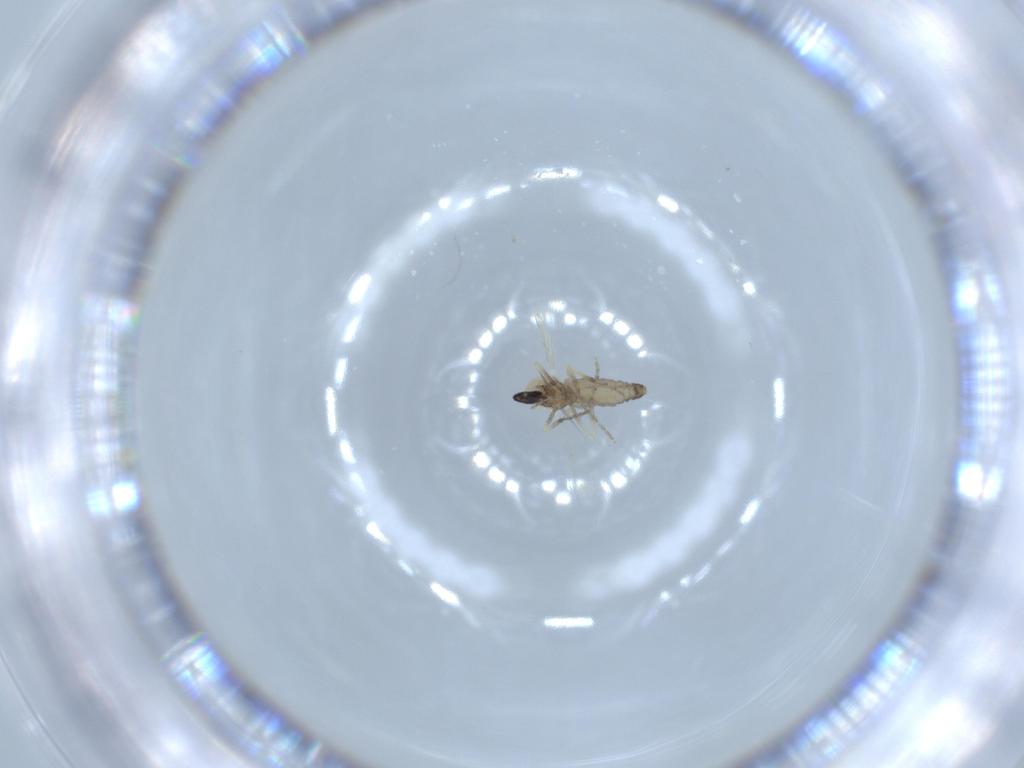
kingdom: Animalia
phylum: Arthropoda
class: Insecta
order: Diptera
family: Ceratopogonidae
